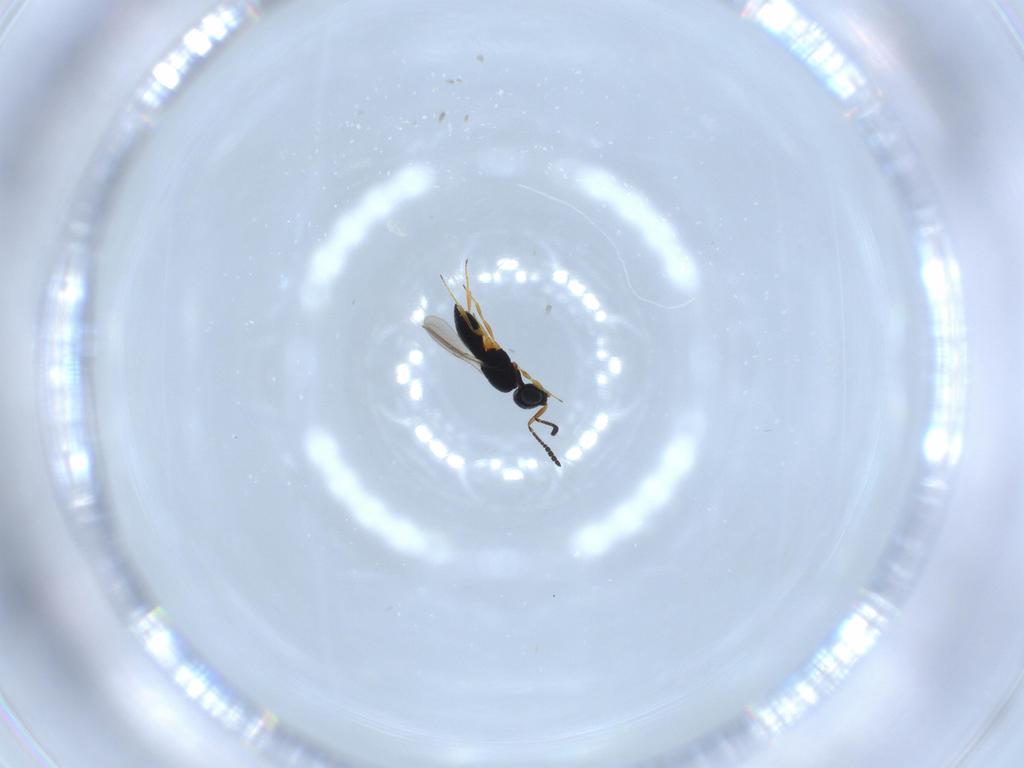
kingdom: Animalia
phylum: Arthropoda
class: Insecta
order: Hymenoptera
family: Scelionidae
